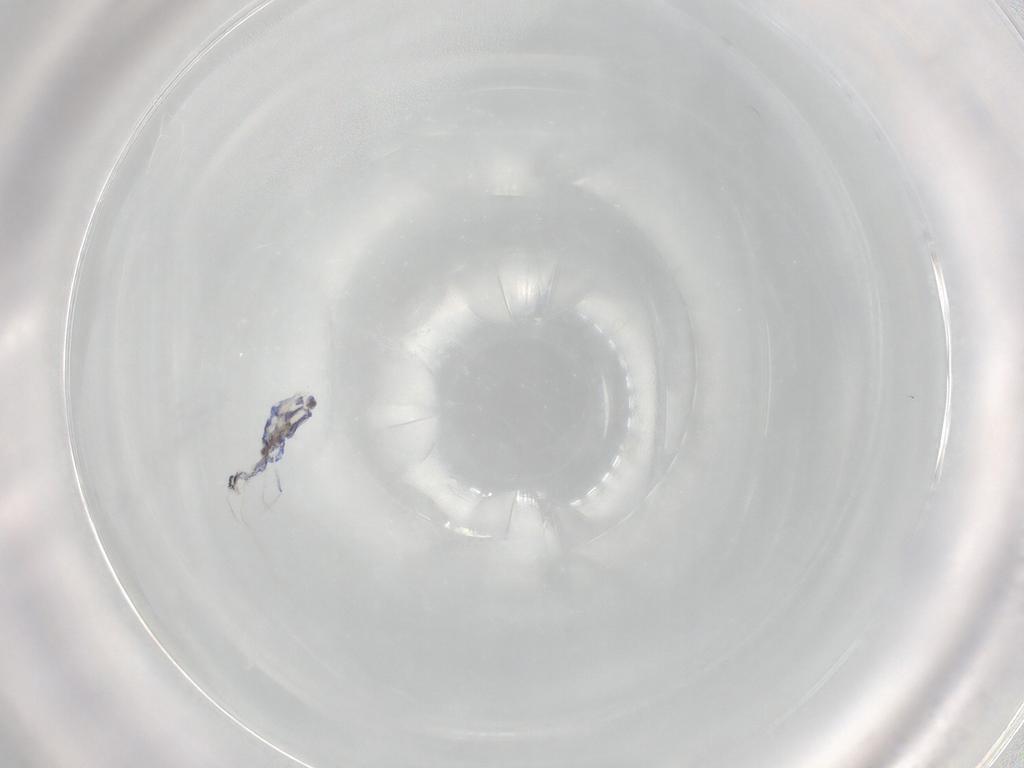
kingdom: Animalia
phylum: Arthropoda
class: Collembola
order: Entomobryomorpha
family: Entomobryidae
